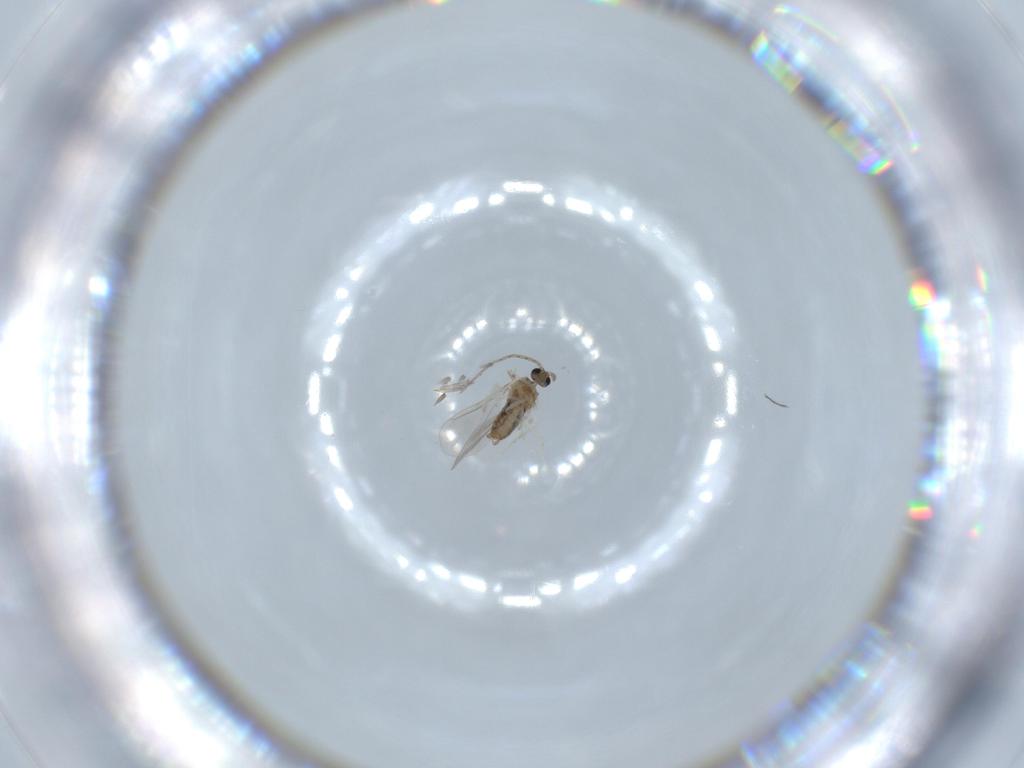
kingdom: Animalia
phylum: Arthropoda
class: Insecta
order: Diptera
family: Cecidomyiidae
